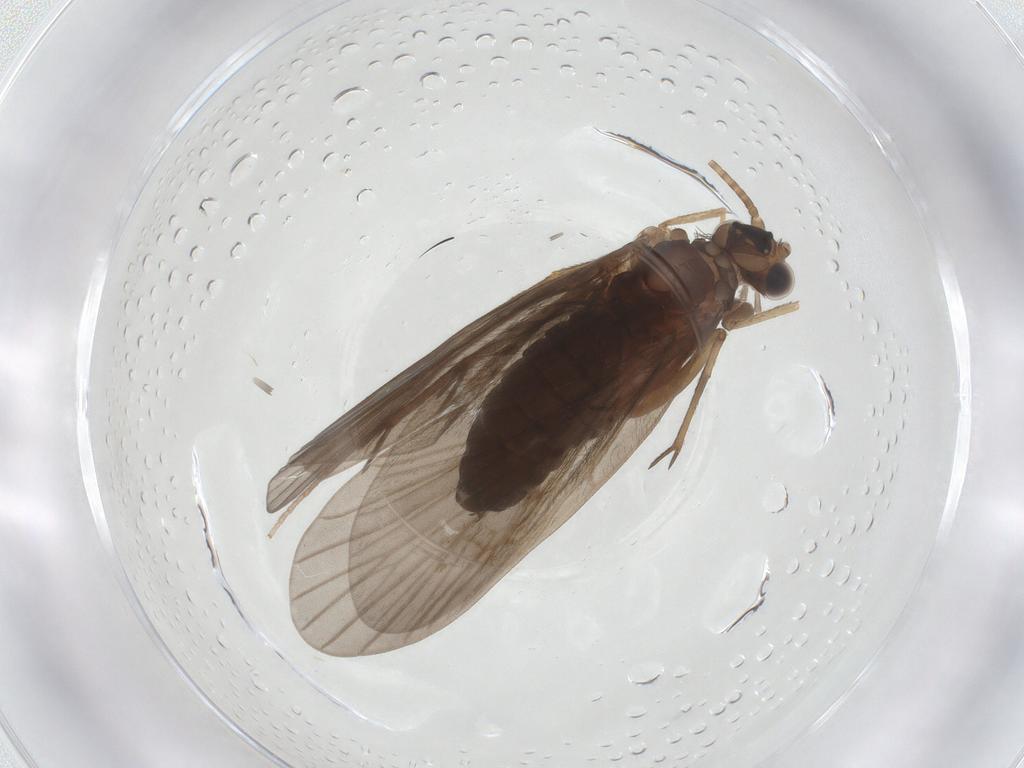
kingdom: Animalia
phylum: Arthropoda
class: Insecta
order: Trichoptera
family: Philopotamidae
